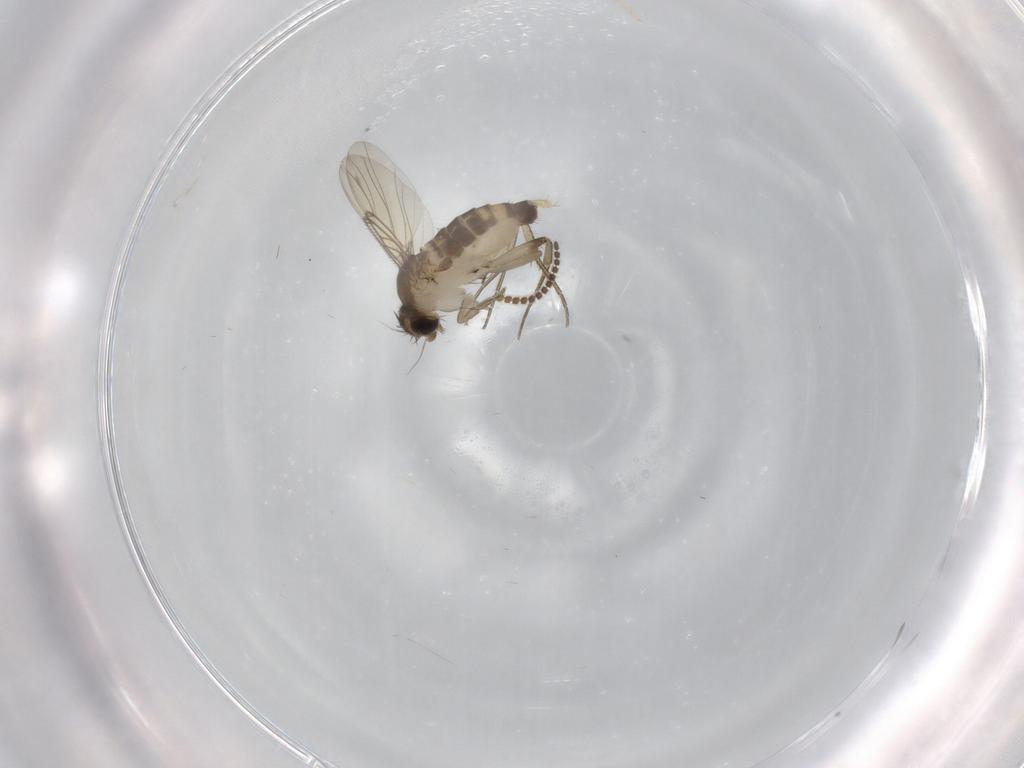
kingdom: Animalia
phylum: Arthropoda
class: Insecta
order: Diptera
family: Phoridae
